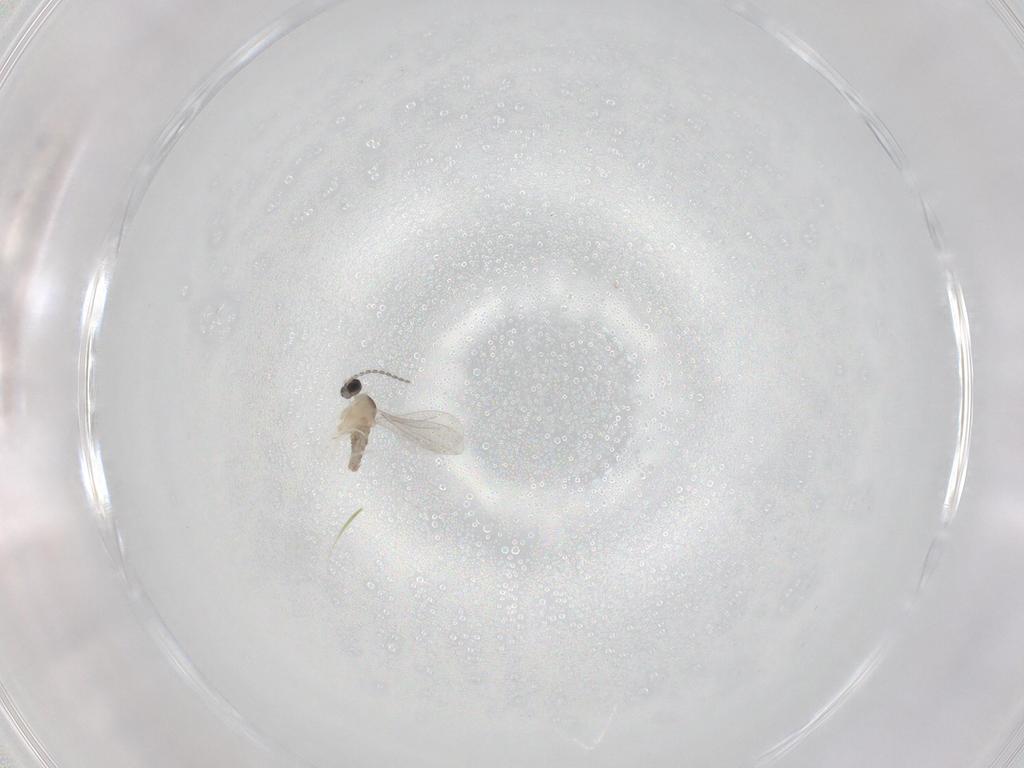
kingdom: Animalia
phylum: Arthropoda
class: Insecta
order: Diptera
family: Cecidomyiidae
